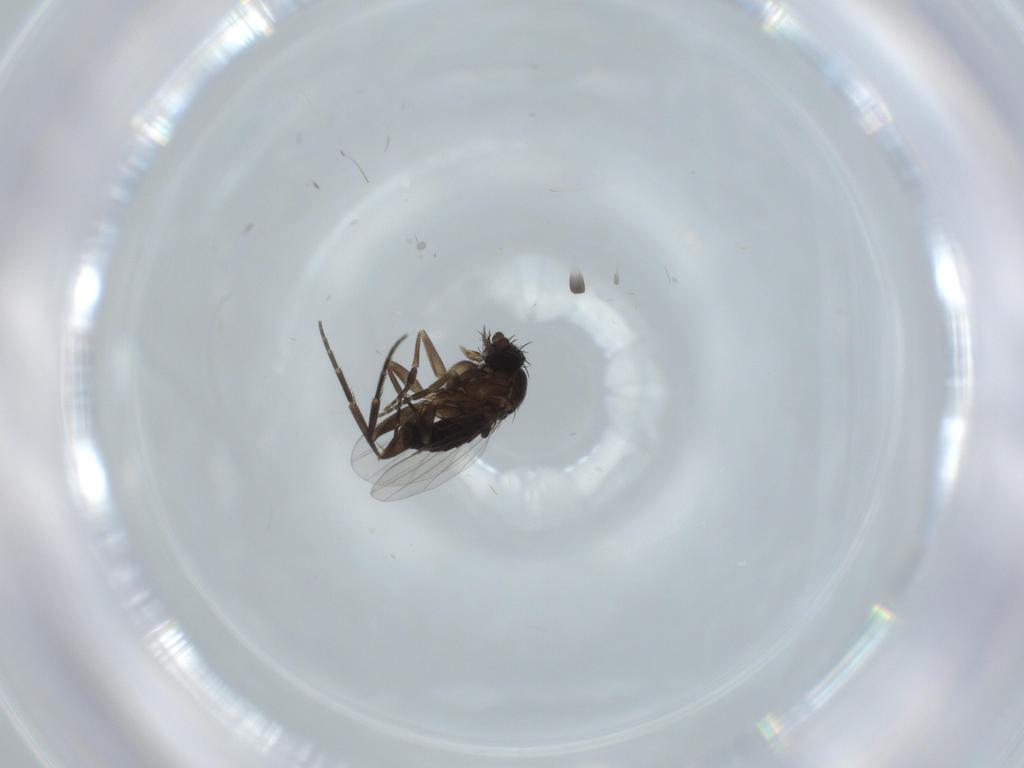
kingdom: Animalia
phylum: Arthropoda
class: Insecta
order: Diptera
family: Phoridae
